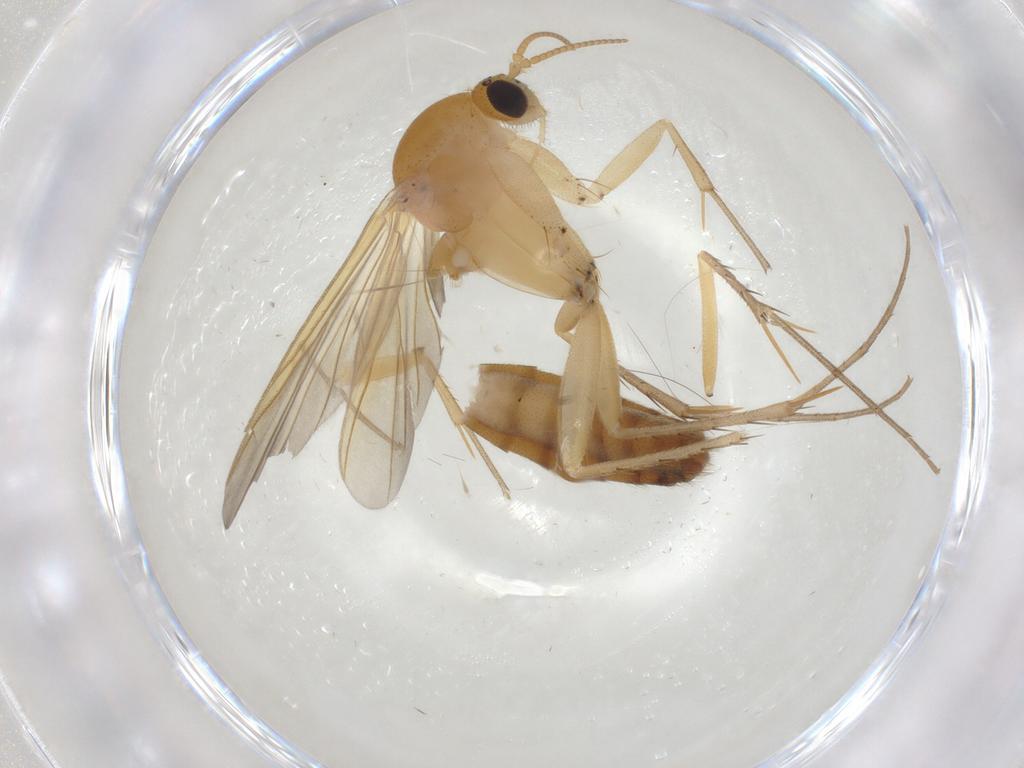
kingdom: Animalia
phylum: Arthropoda
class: Insecta
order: Diptera
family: Mycetophilidae
